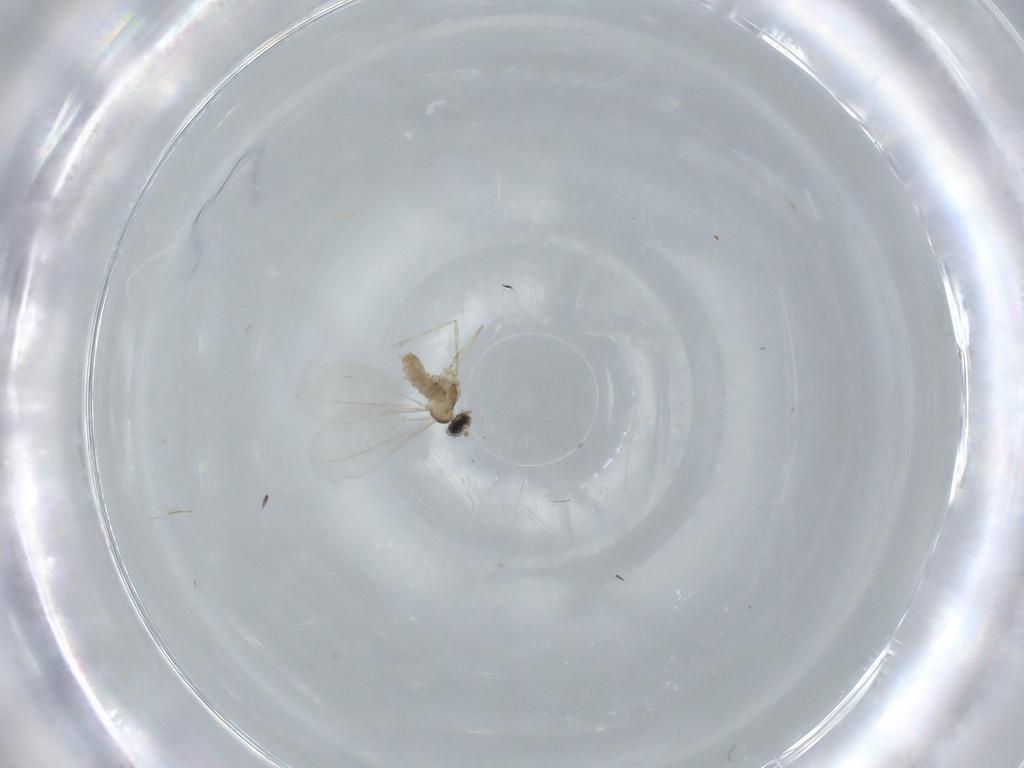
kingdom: Animalia
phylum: Arthropoda
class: Insecta
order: Diptera
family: Cecidomyiidae
